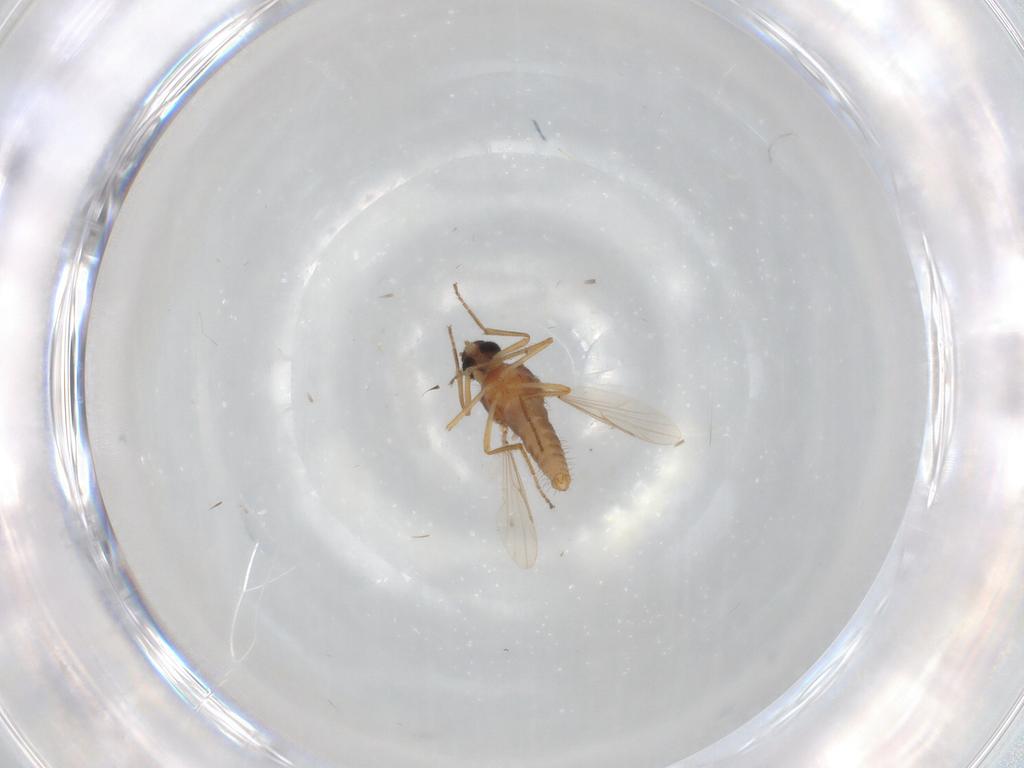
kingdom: Animalia
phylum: Arthropoda
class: Insecta
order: Diptera
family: Ceratopogonidae
